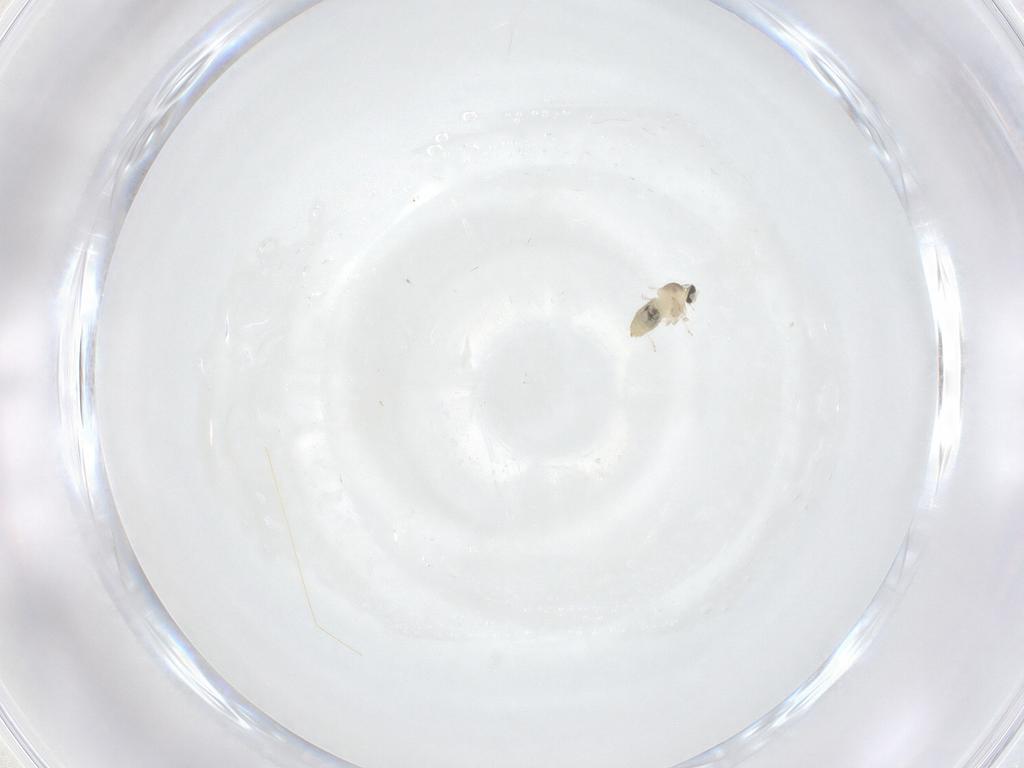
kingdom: Animalia
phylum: Arthropoda
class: Insecta
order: Diptera
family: Cecidomyiidae
